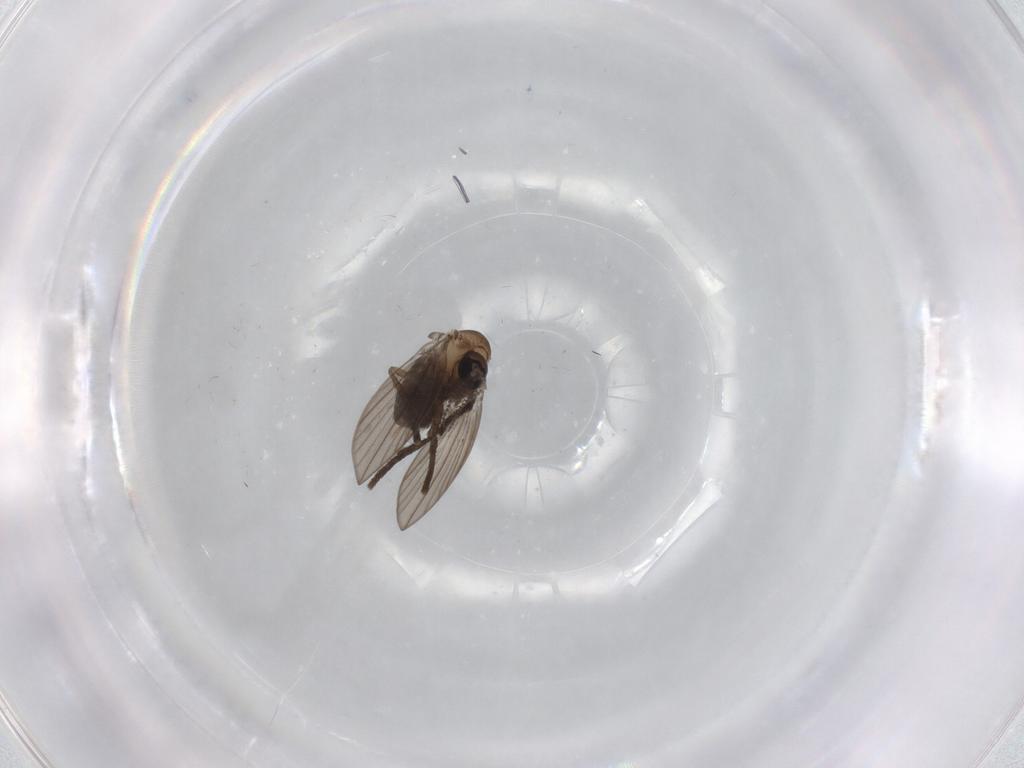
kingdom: Animalia
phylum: Arthropoda
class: Insecta
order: Diptera
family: Psychodidae
